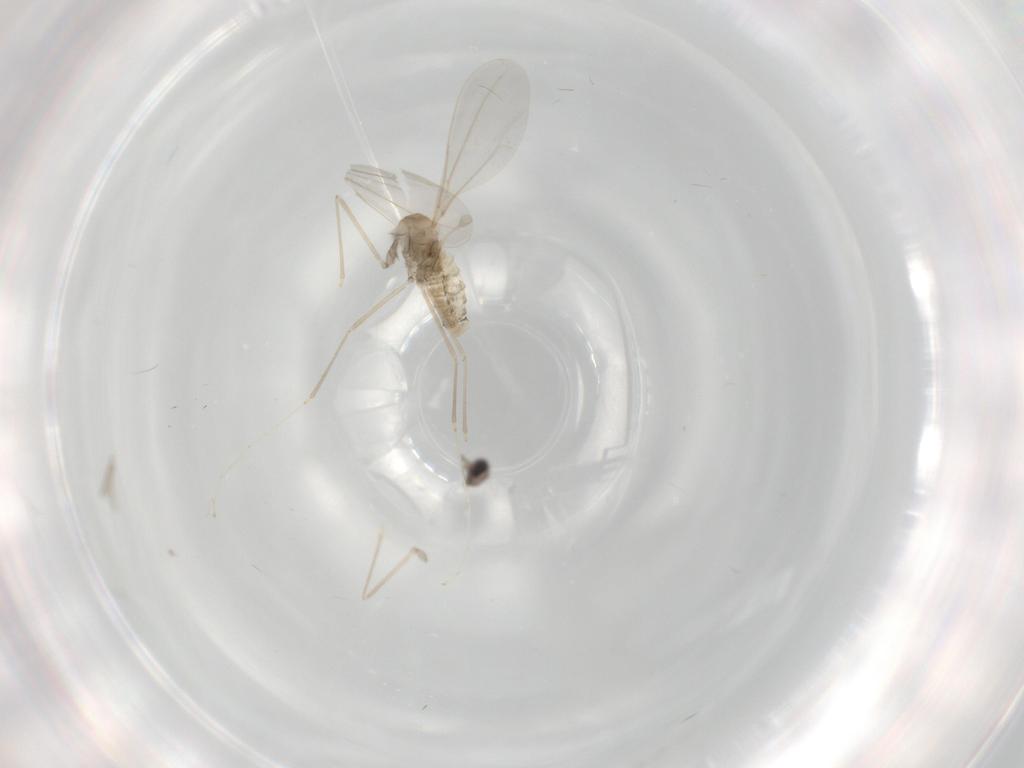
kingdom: Animalia
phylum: Arthropoda
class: Insecta
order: Diptera
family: Cecidomyiidae
